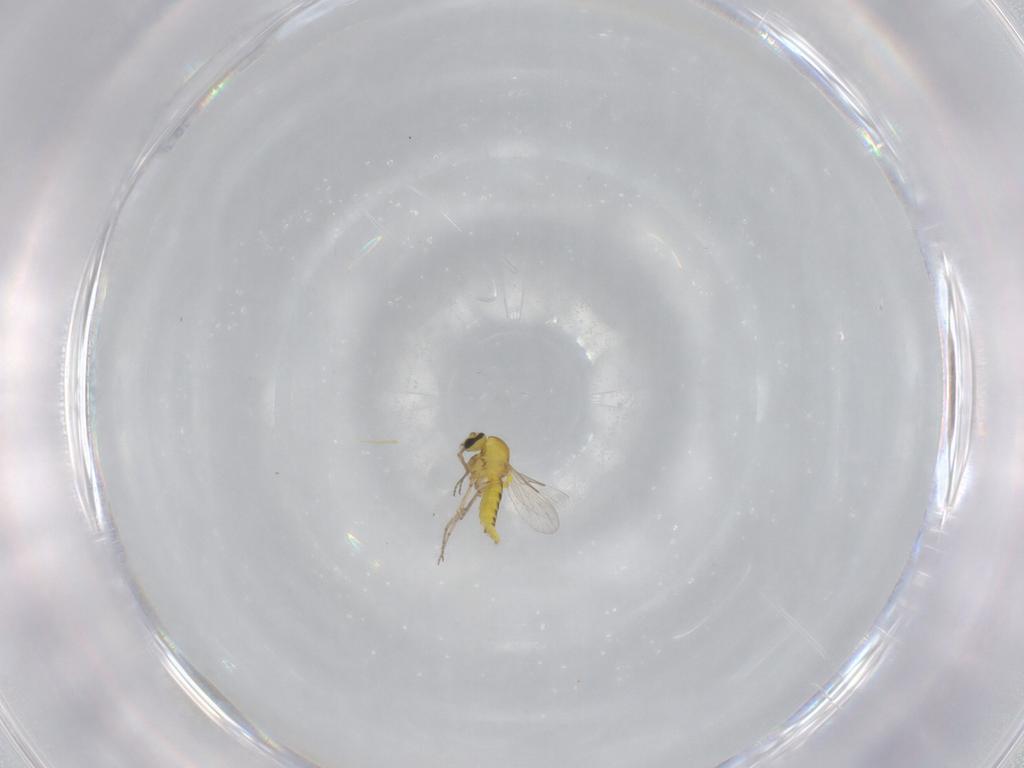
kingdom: Animalia
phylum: Arthropoda
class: Insecta
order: Diptera
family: Ceratopogonidae
